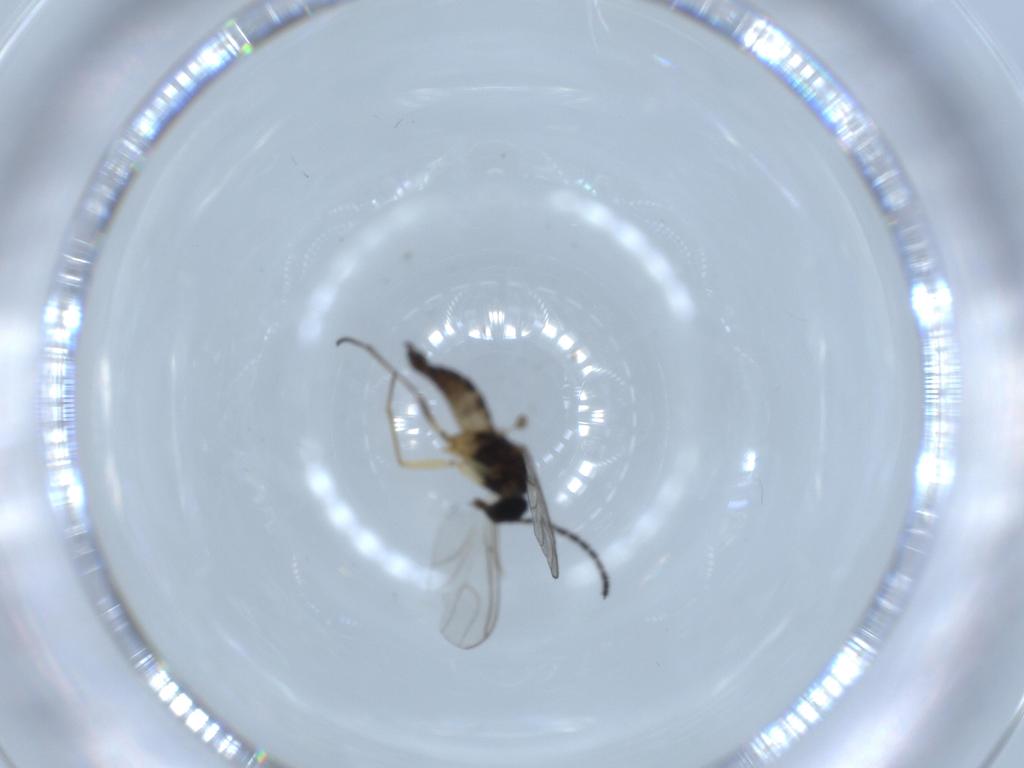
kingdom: Animalia
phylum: Arthropoda
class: Insecta
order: Diptera
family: Sciaridae
